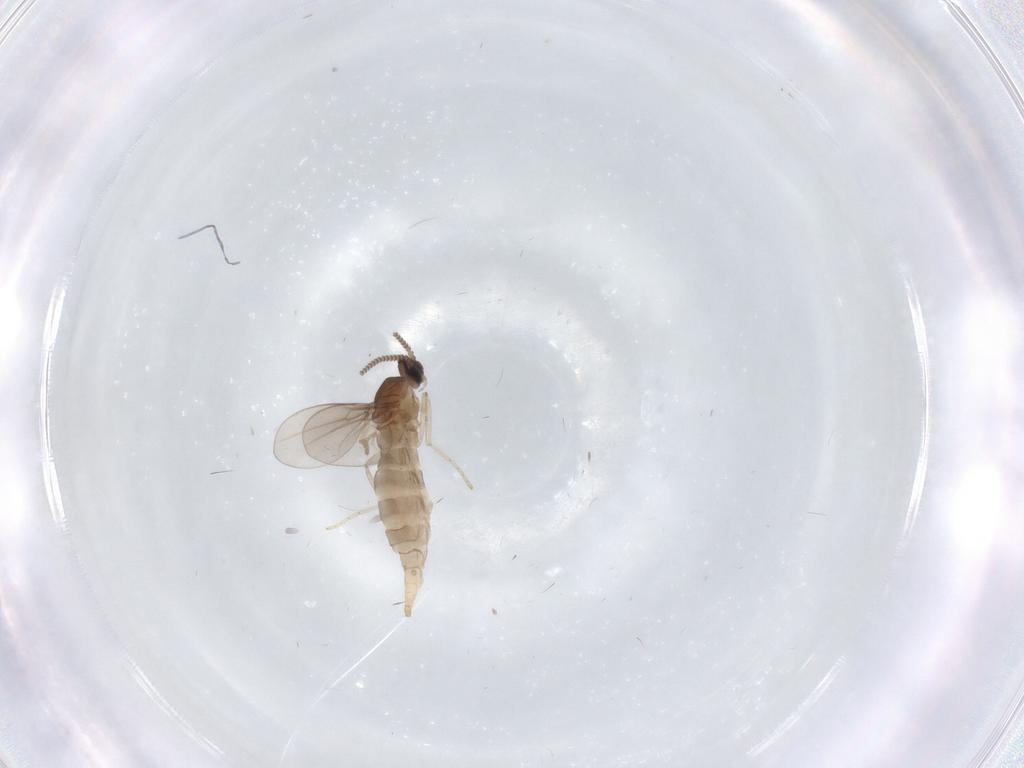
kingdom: Animalia
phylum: Arthropoda
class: Insecta
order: Diptera
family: Cecidomyiidae
